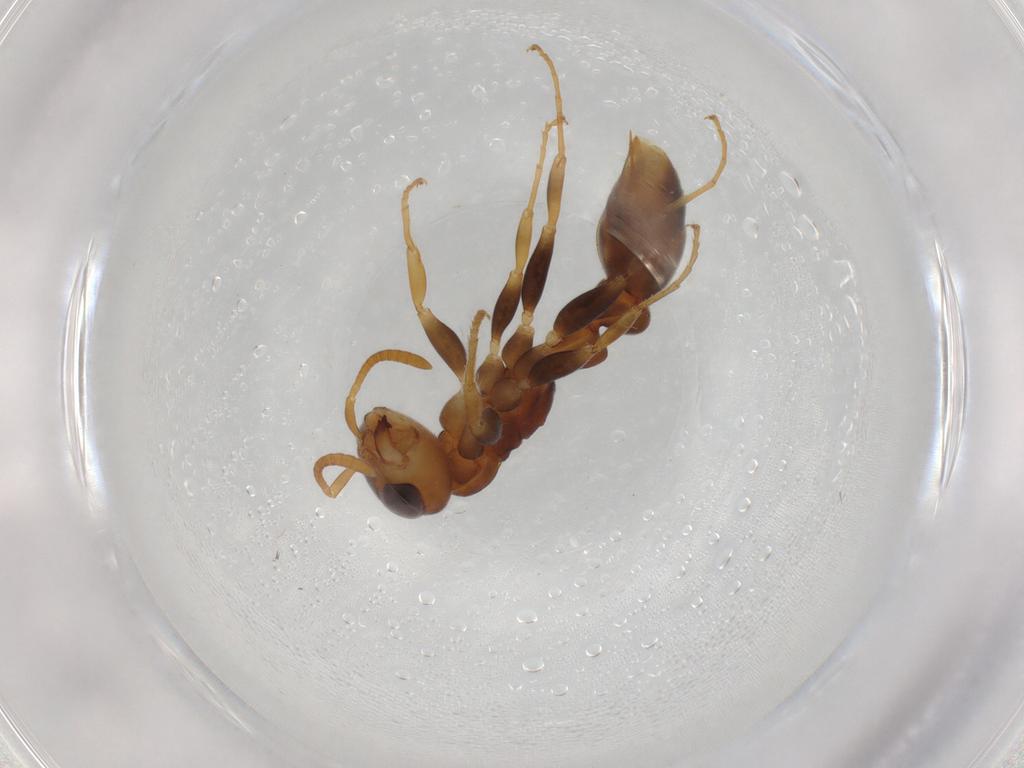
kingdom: Animalia
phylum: Arthropoda
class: Insecta
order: Hymenoptera
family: Formicidae
